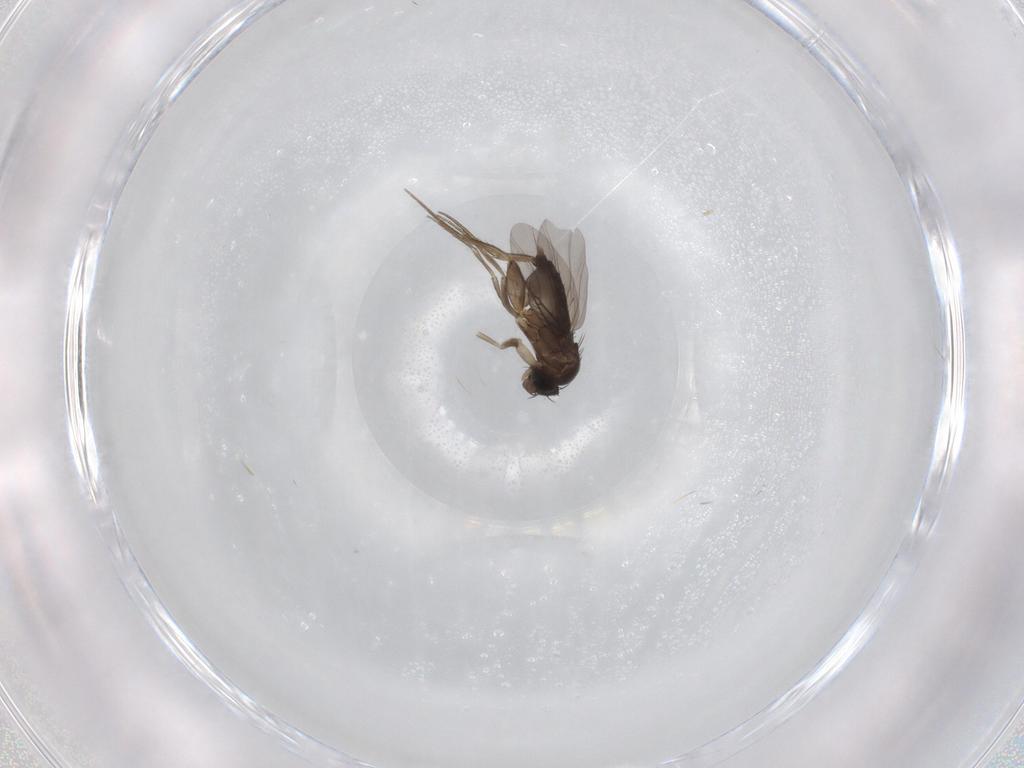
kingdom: Animalia
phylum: Arthropoda
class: Insecta
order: Diptera
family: Phoridae
